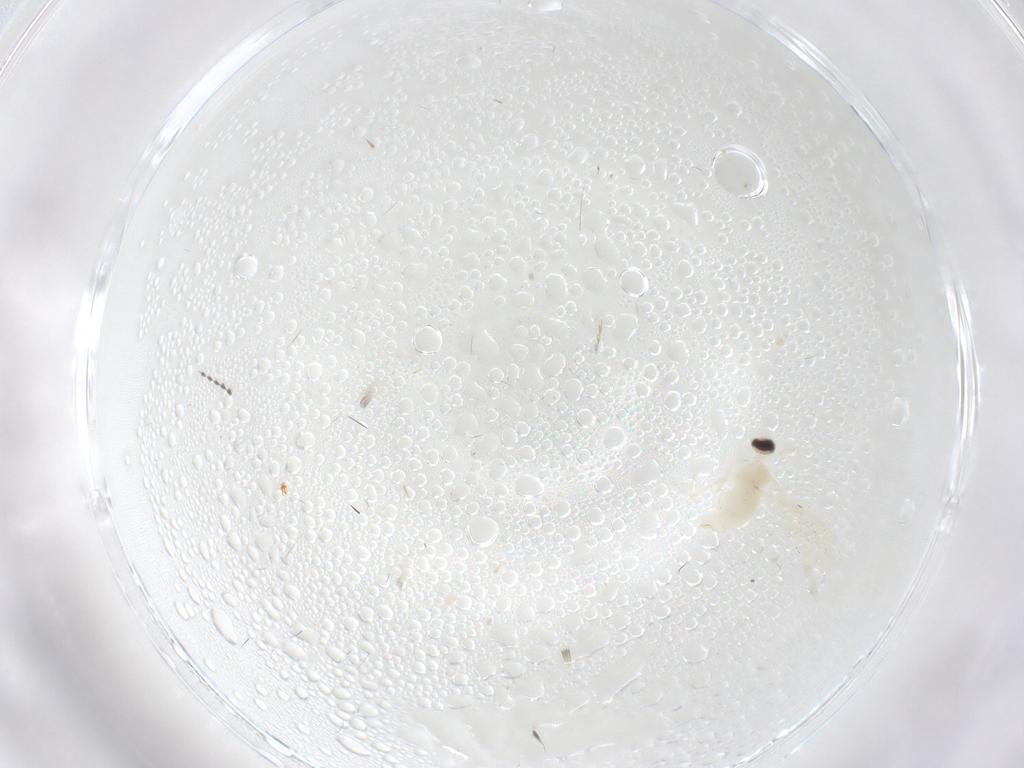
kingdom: Animalia
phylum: Arthropoda
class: Insecta
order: Diptera
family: Limoniidae
